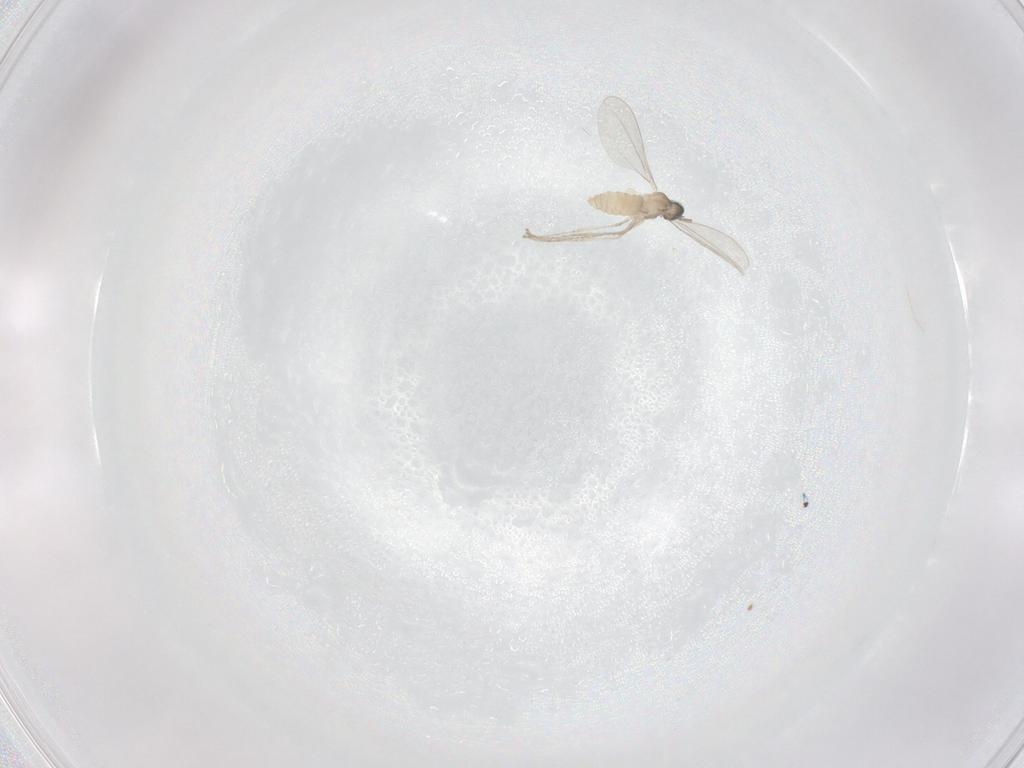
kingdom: Animalia
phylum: Arthropoda
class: Insecta
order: Diptera
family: Cecidomyiidae
